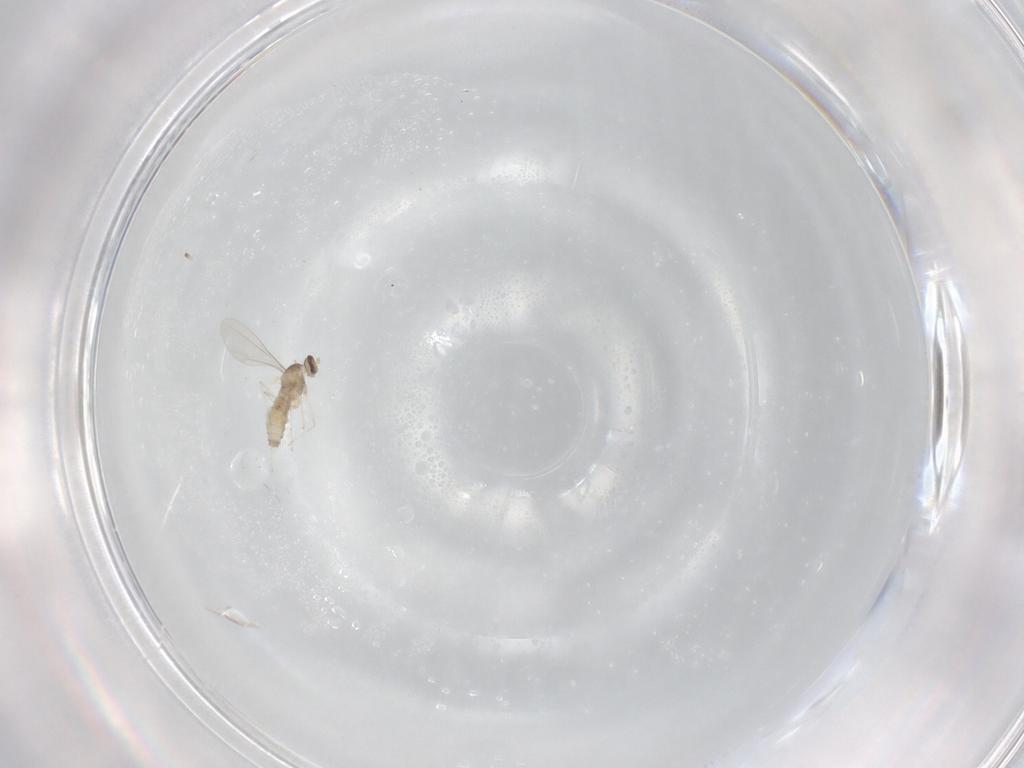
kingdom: Animalia
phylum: Arthropoda
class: Insecta
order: Diptera
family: Cecidomyiidae
